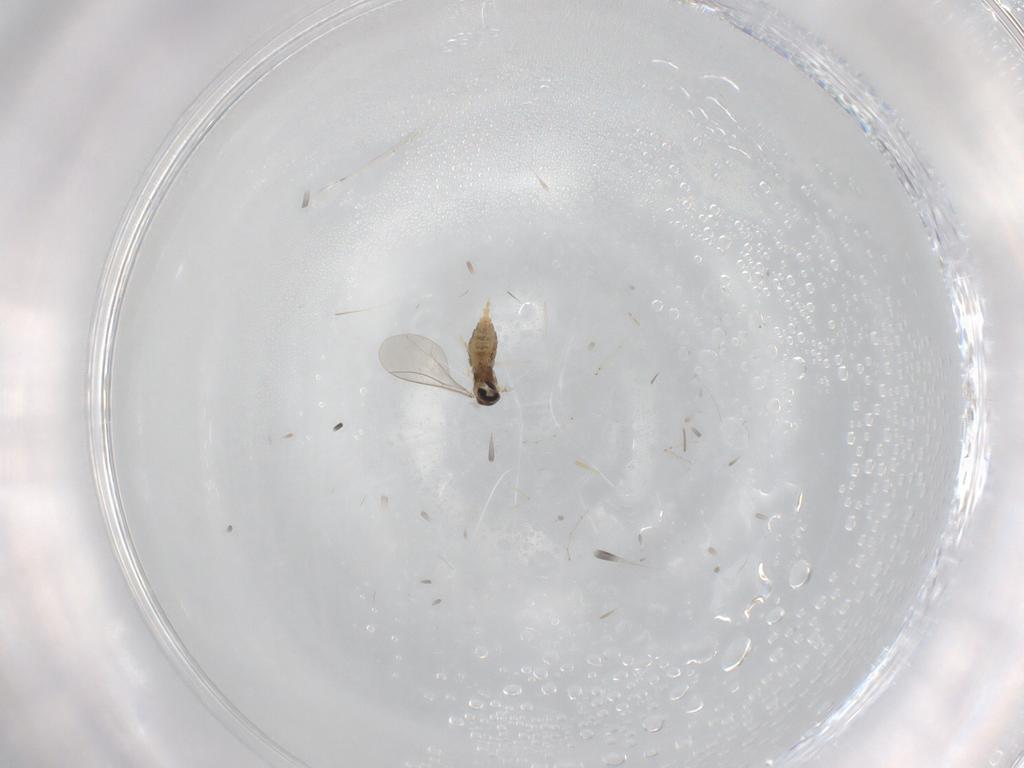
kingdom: Animalia
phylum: Arthropoda
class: Insecta
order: Diptera
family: Cecidomyiidae
